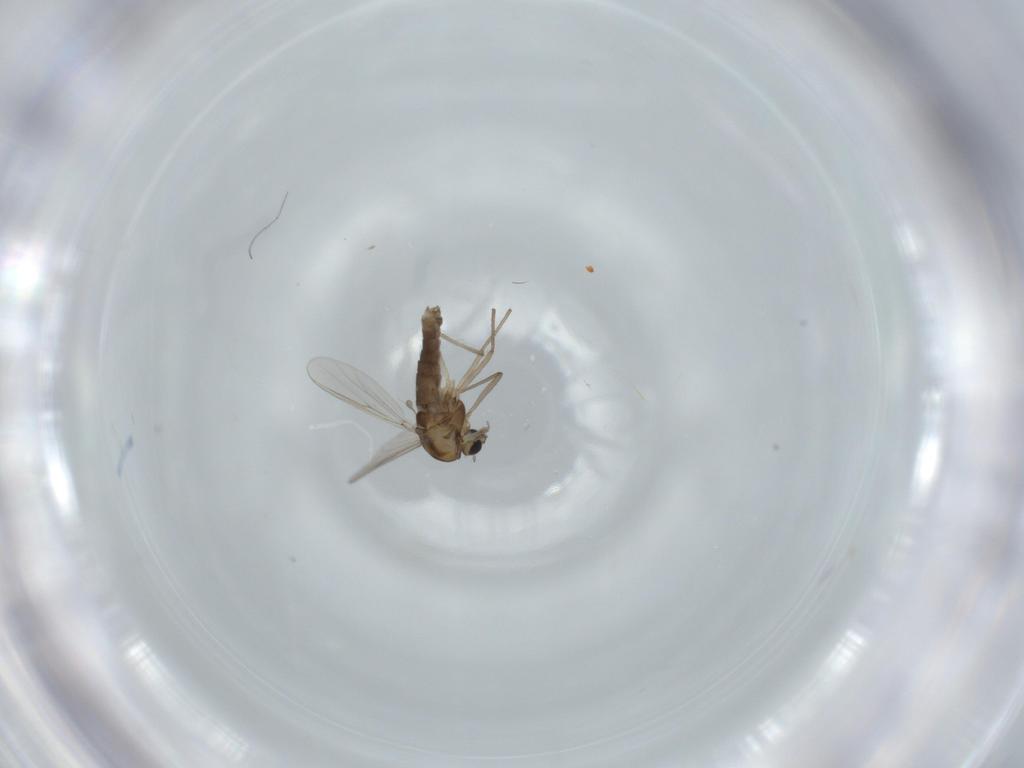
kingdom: Animalia
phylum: Arthropoda
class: Insecta
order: Diptera
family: Chironomidae
